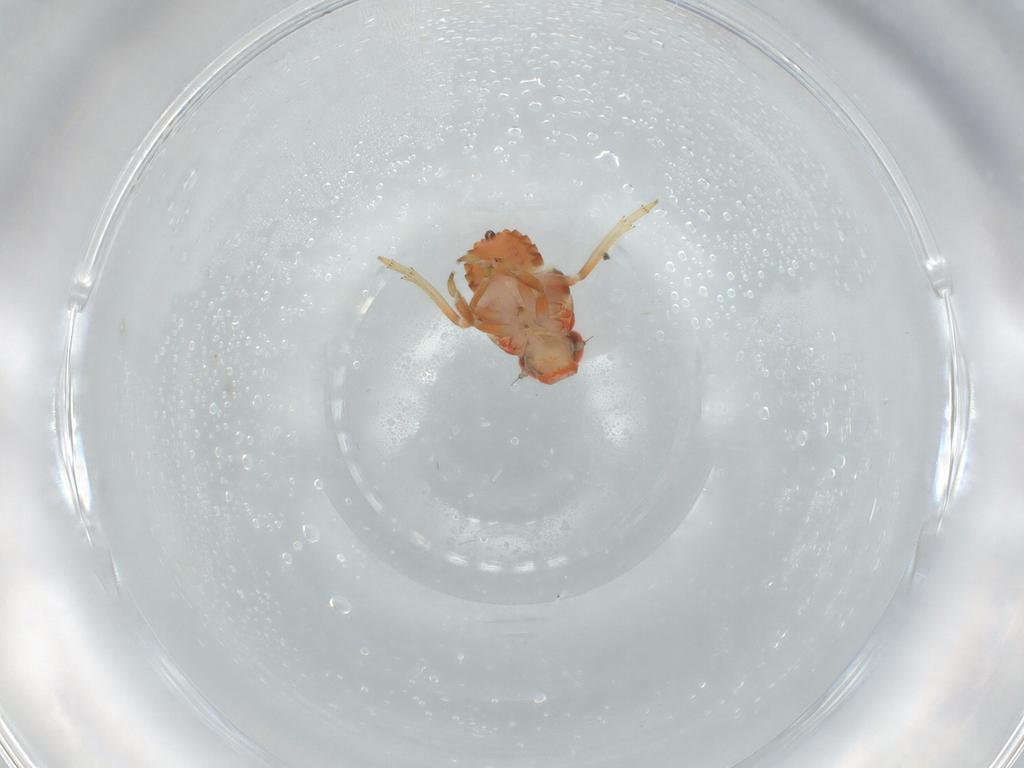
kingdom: Animalia
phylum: Arthropoda
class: Insecta
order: Hemiptera
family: Issidae
